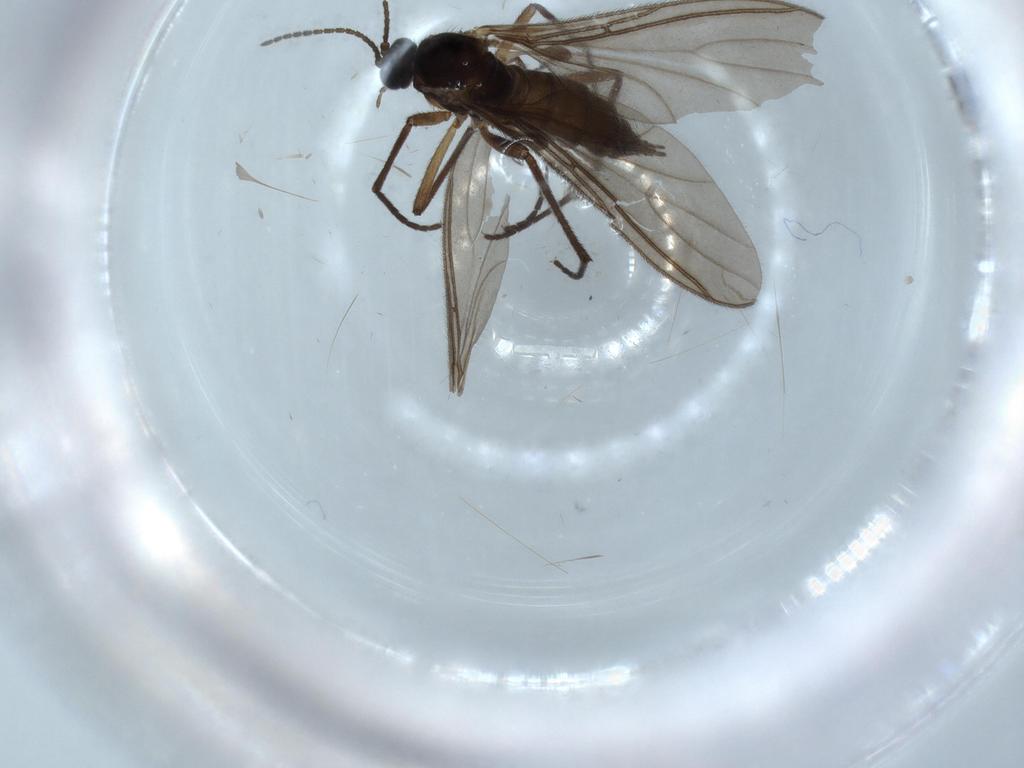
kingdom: Animalia
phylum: Arthropoda
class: Insecta
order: Diptera
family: Sciaridae
